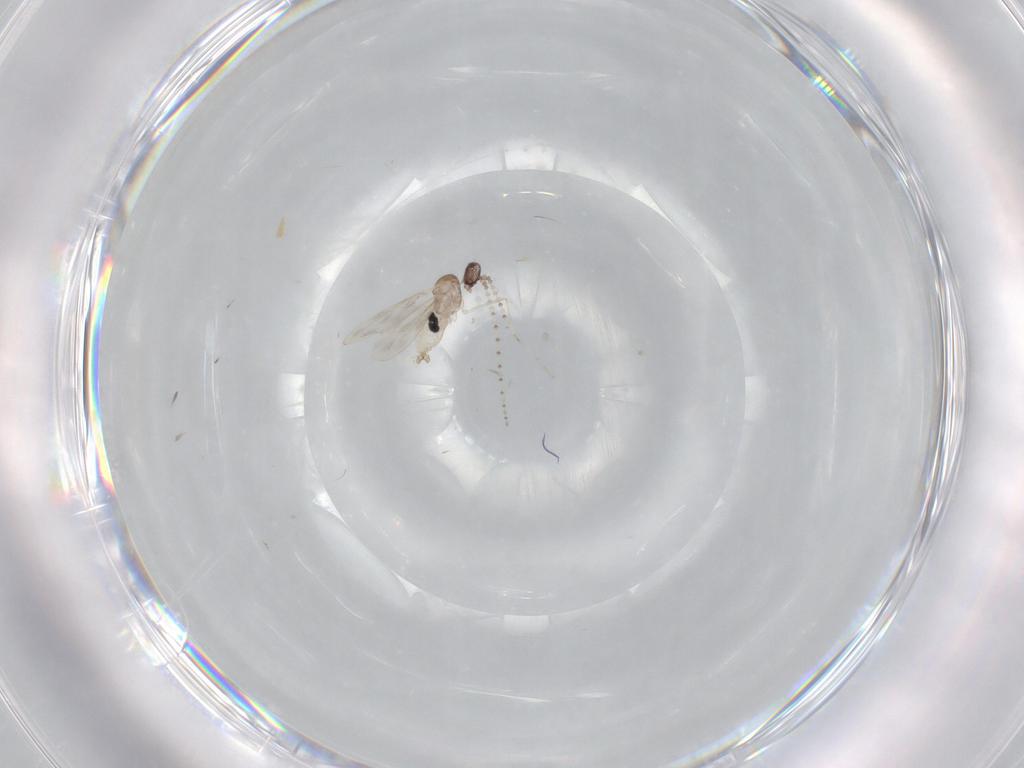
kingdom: Animalia
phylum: Arthropoda
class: Insecta
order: Diptera
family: Cecidomyiidae
